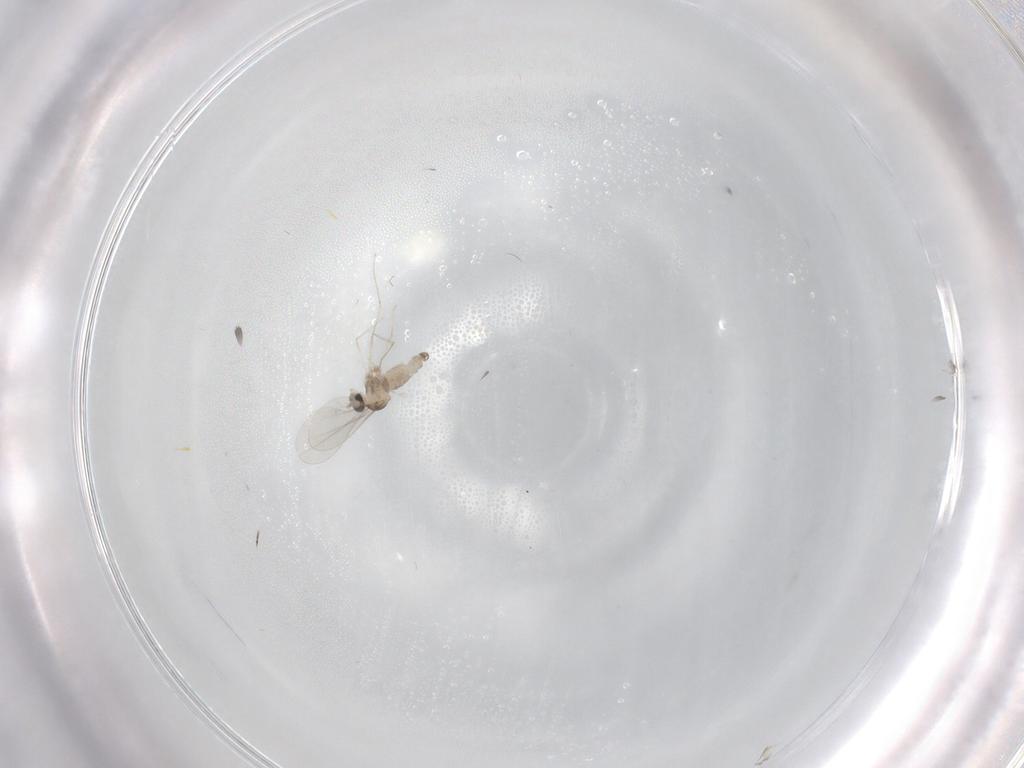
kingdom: Animalia
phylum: Arthropoda
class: Insecta
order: Diptera
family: Cecidomyiidae
